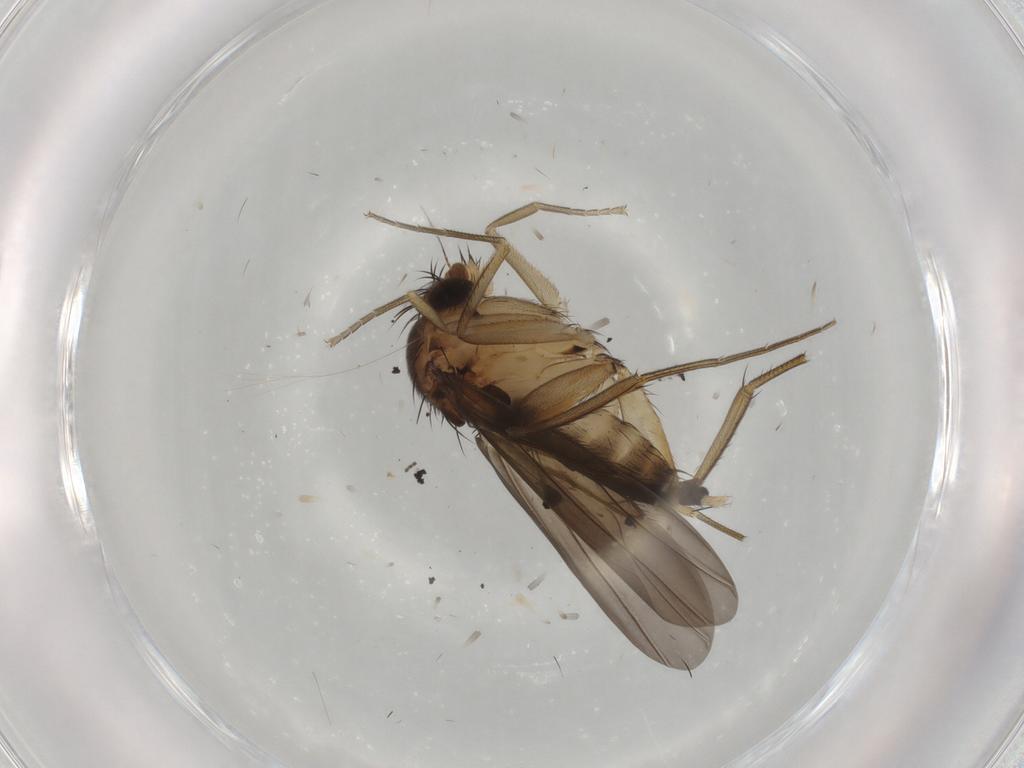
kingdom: Animalia
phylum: Arthropoda
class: Insecta
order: Diptera
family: Phoridae
